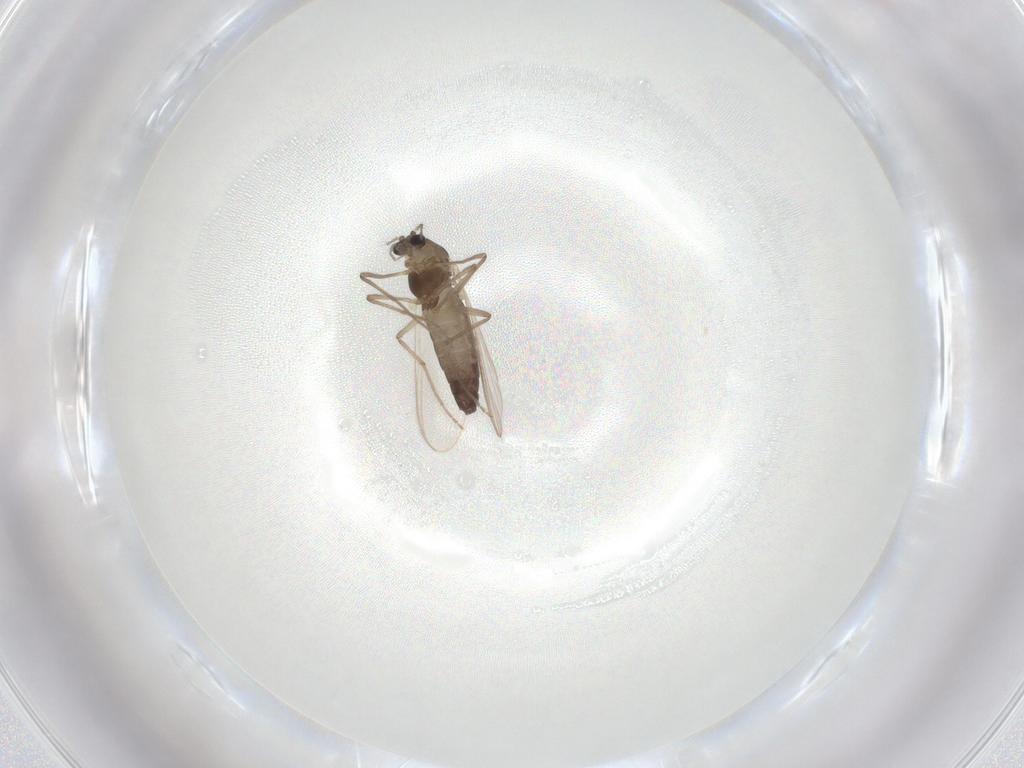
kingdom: Animalia
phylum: Arthropoda
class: Insecta
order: Diptera
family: Chironomidae
